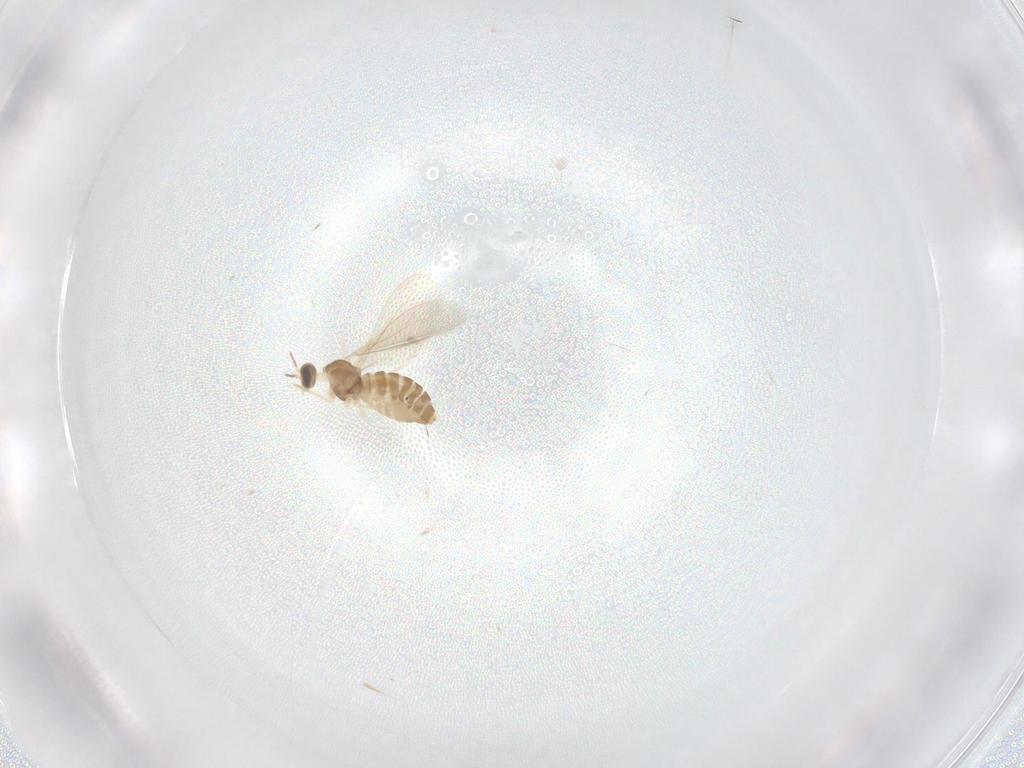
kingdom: Animalia
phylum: Arthropoda
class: Insecta
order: Diptera
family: Cecidomyiidae
